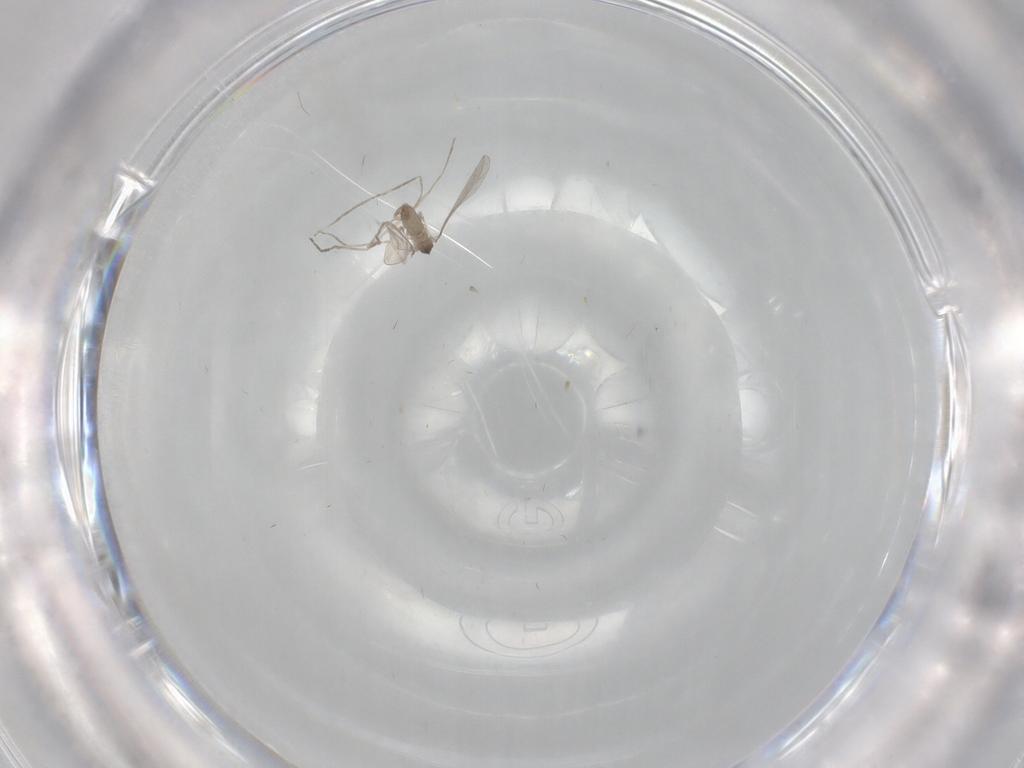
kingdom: Animalia
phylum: Arthropoda
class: Insecta
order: Diptera
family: Cecidomyiidae
